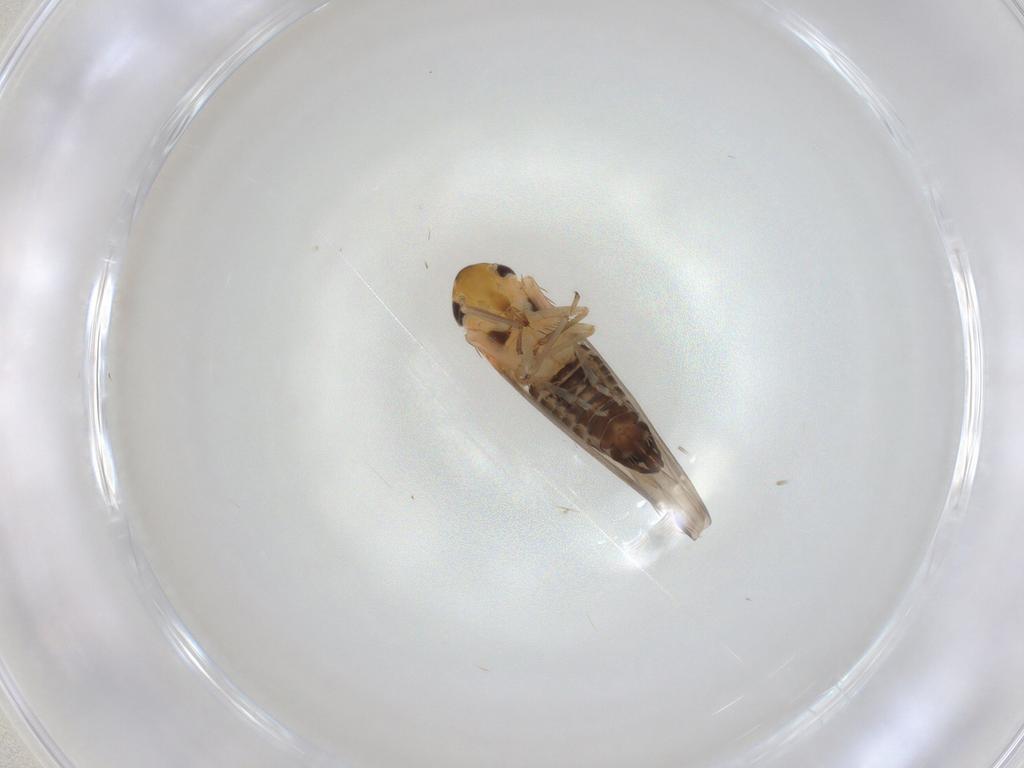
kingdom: Animalia
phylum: Arthropoda
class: Insecta
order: Hemiptera
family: Cicadellidae
